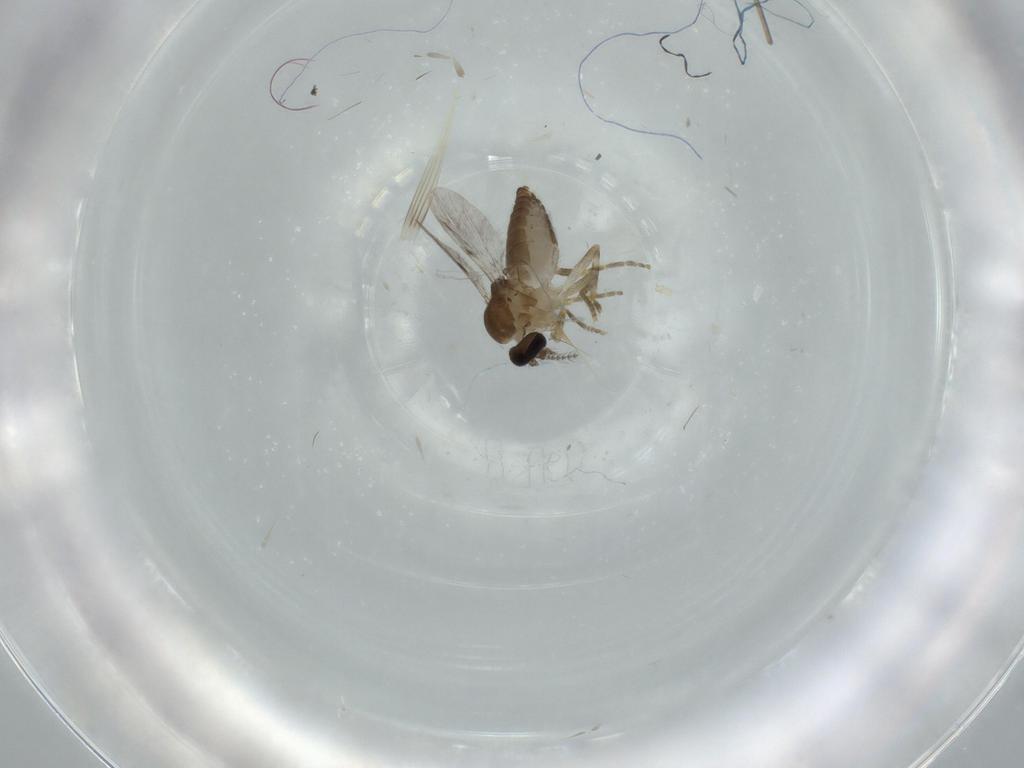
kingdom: Animalia
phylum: Arthropoda
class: Insecta
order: Diptera
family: Ceratopogonidae
